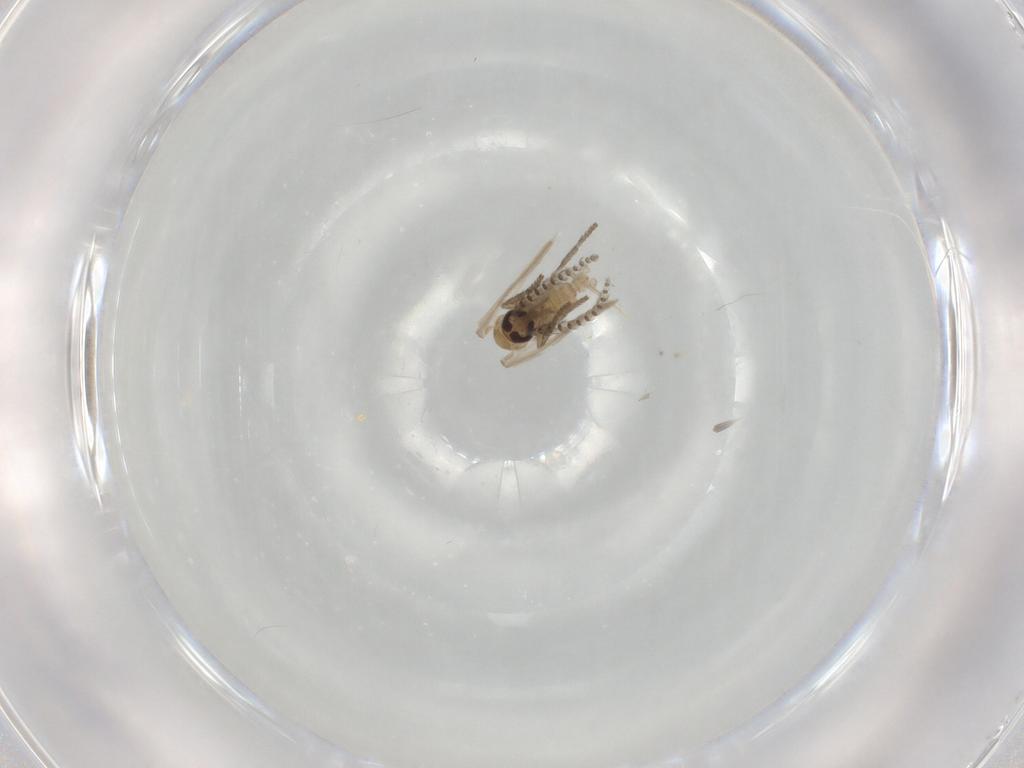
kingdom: Animalia
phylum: Arthropoda
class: Insecta
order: Diptera
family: Psychodidae
